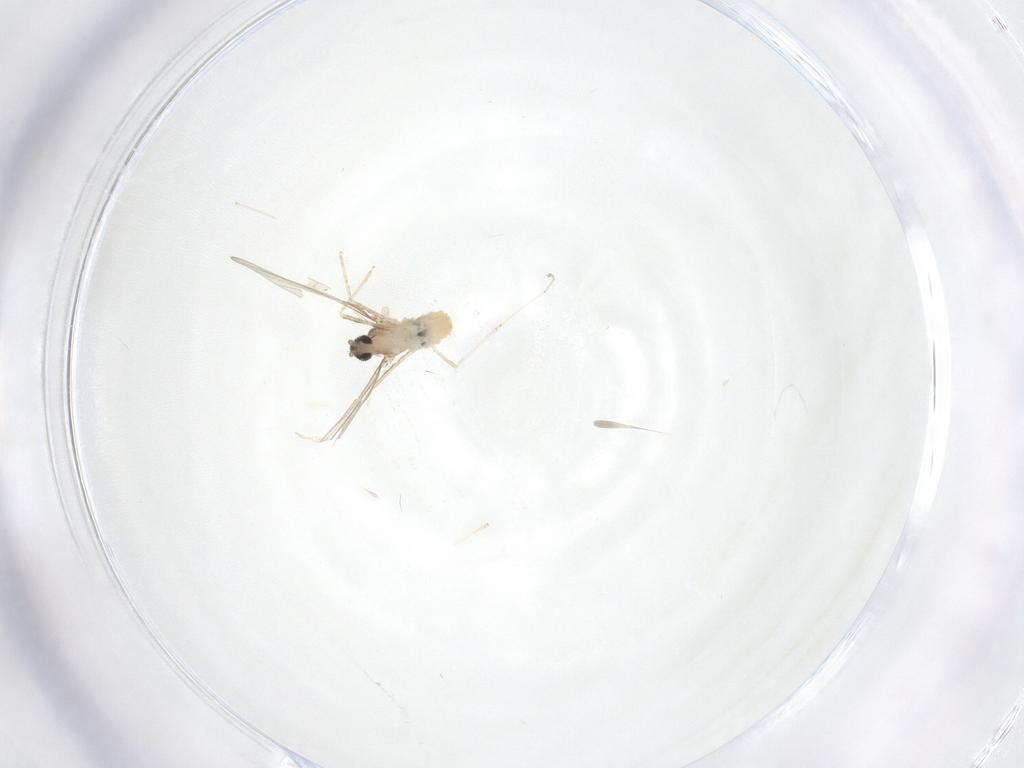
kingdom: Animalia
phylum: Arthropoda
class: Insecta
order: Diptera
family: Cecidomyiidae
